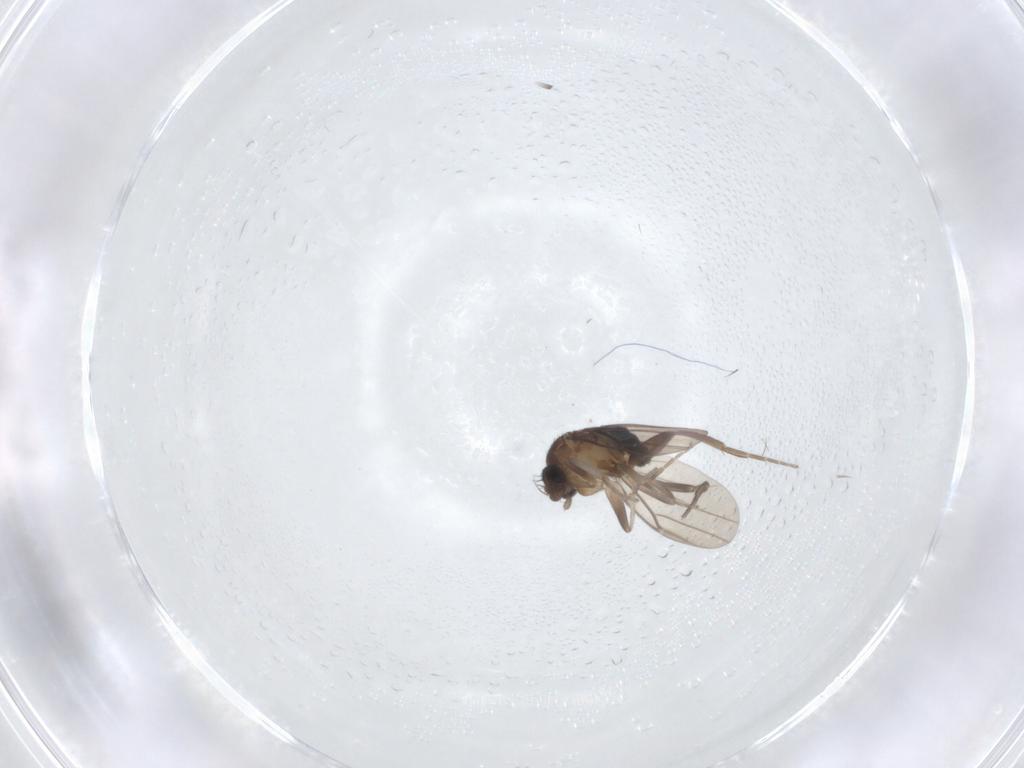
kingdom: Animalia
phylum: Arthropoda
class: Insecta
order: Diptera
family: Phoridae
